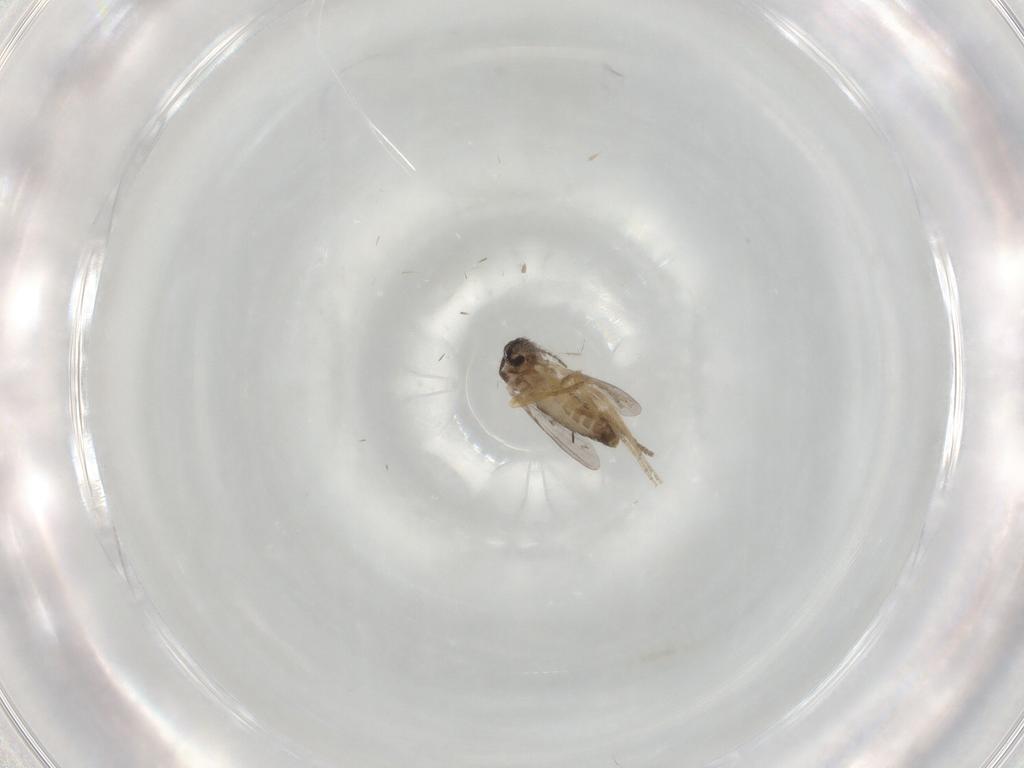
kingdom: Animalia
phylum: Arthropoda
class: Insecta
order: Diptera
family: Ceratopogonidae
